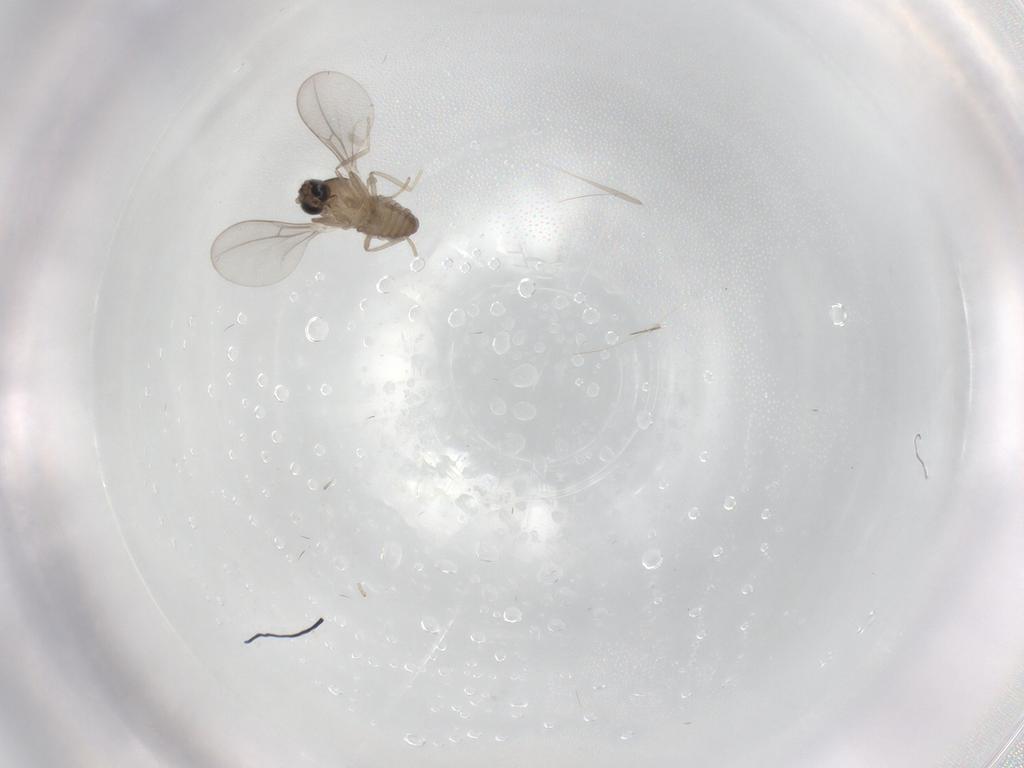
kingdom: Animalia
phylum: Arthropoda
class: Insecta
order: Diptera
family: Cecidomyiidae
